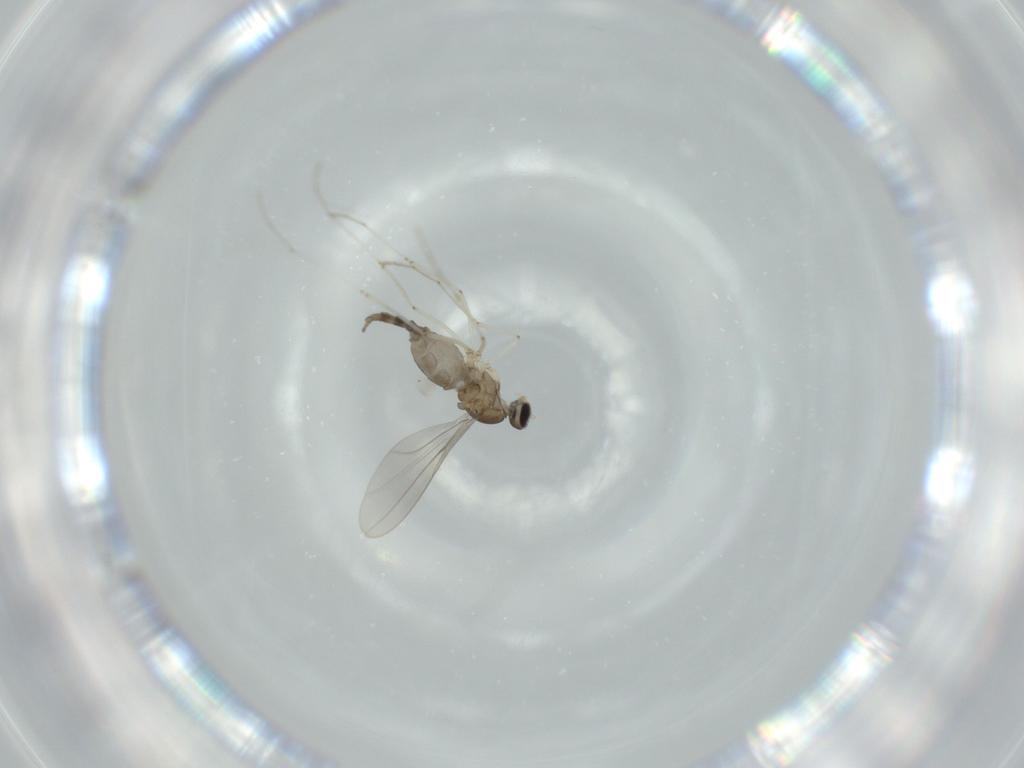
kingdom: Animalia
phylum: Arthropoda
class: Insecta
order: Diptera
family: Cecidomyiidae
